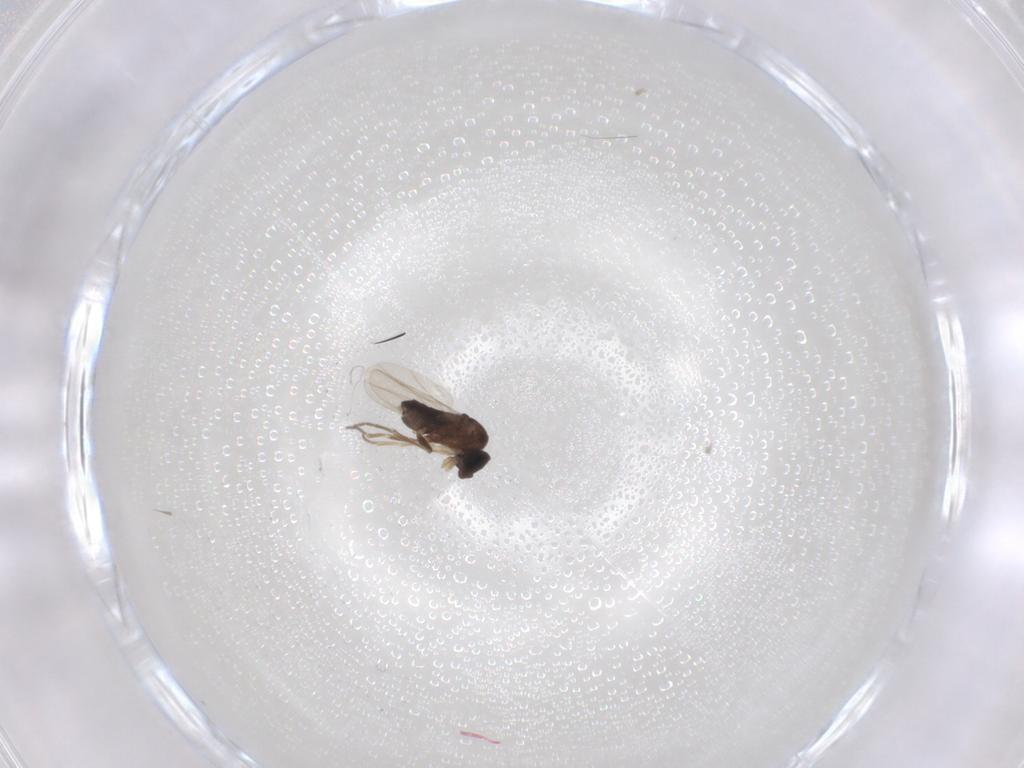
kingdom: Animalia
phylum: Arthropoda
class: Insecta
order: Diptera
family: Phoridae
